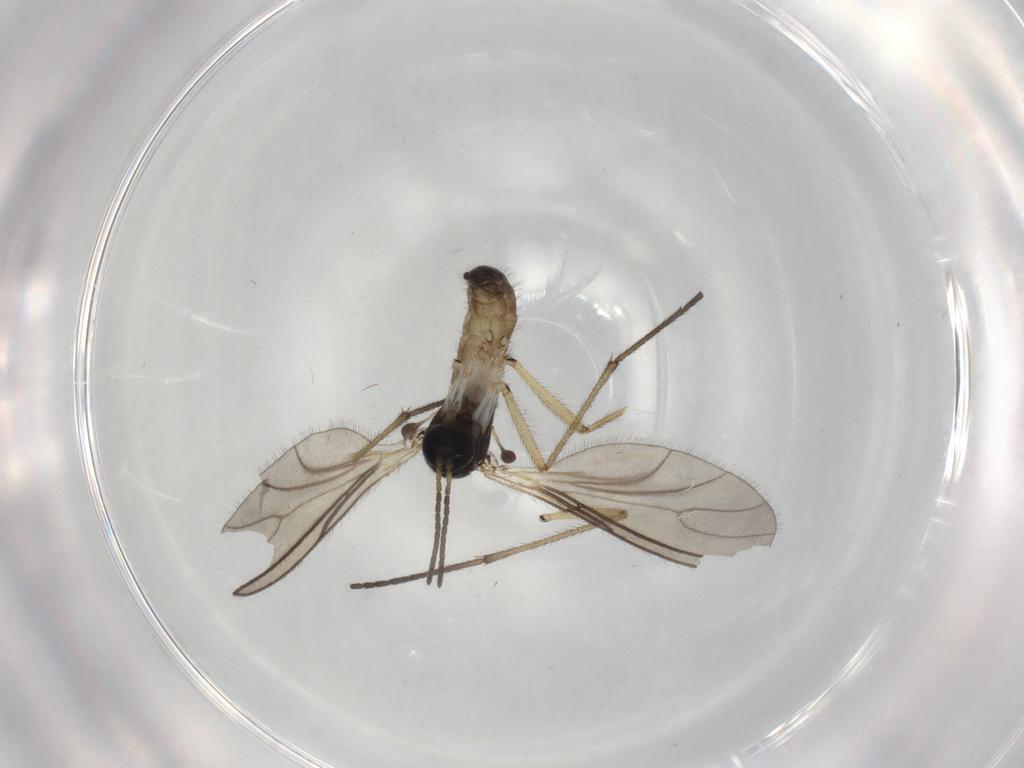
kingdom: Animalia
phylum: Arthropoda
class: Insecta
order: Diptera
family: Sciaridae
